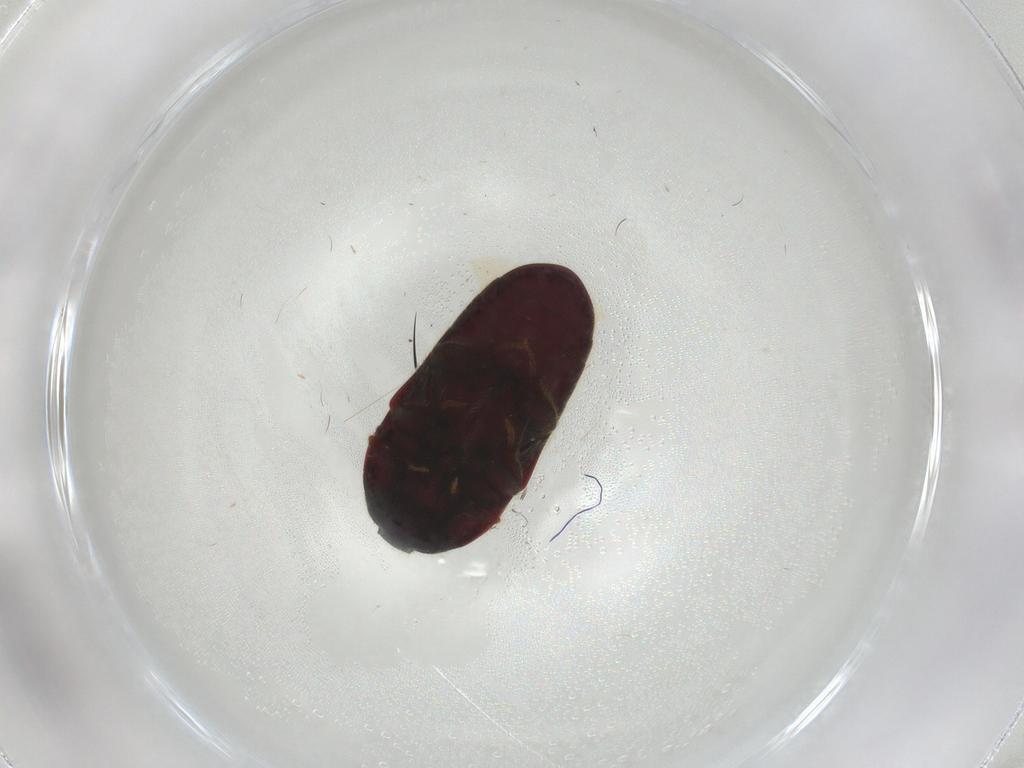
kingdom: Animalia
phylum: Arthropoda
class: Insecta
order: Coleoptera
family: Throscidae
